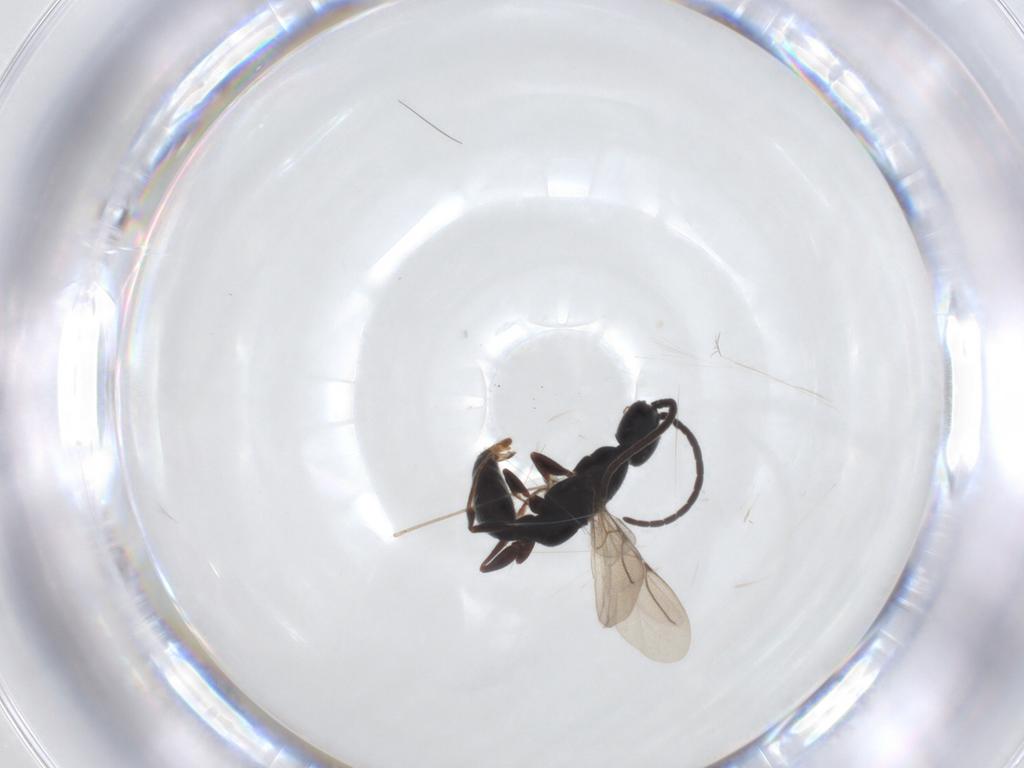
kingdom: Animalia
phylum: Arthropoda
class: Insecta
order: Hymenoptera
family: Bethylidae
